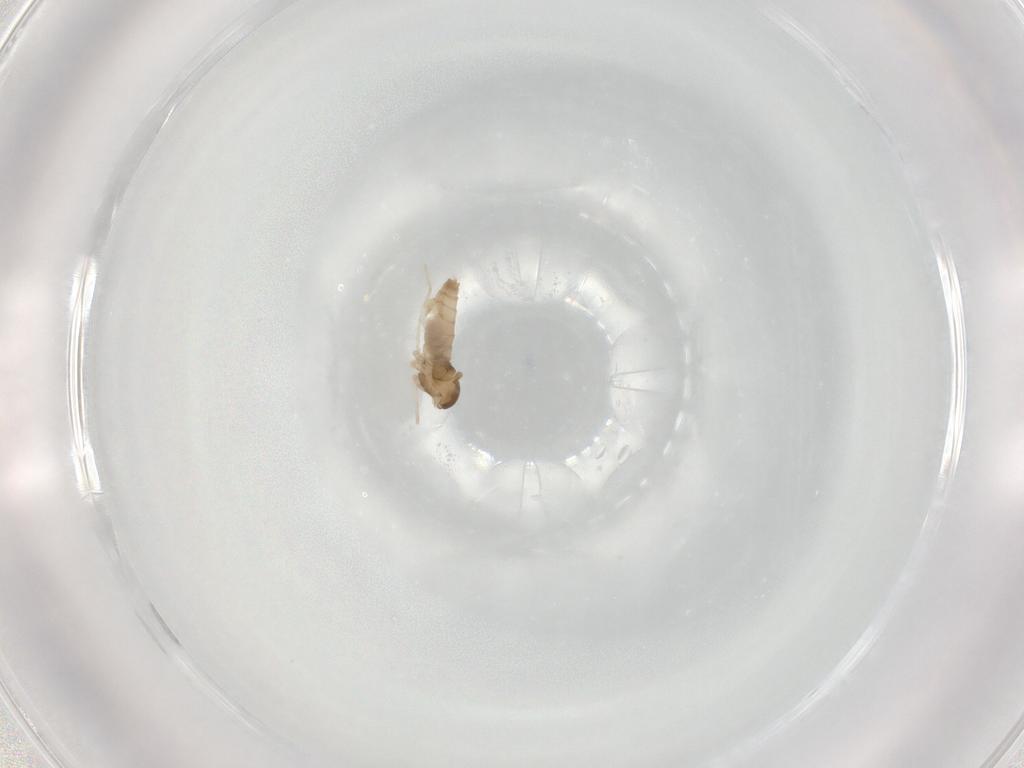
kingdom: Animalia
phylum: Arthropoda
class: Insecta
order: Diptera
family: Cecidomyiidae
